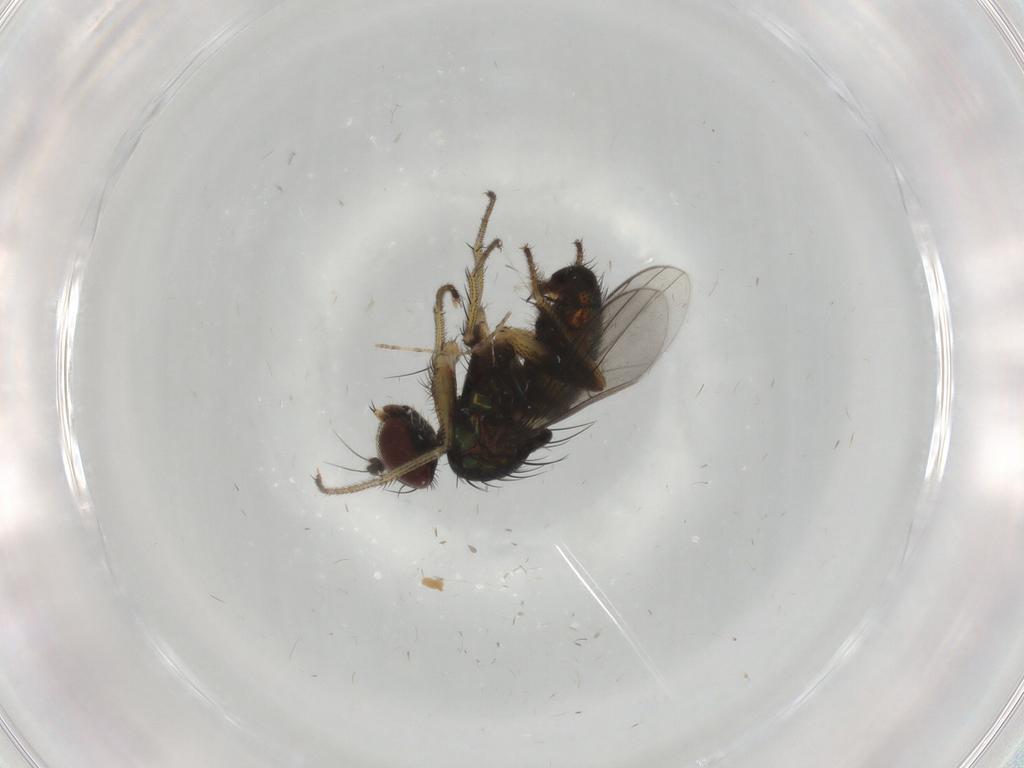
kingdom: Animalia
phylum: Arthropoda
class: Insecta
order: Diptera
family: Dolichopodidae
